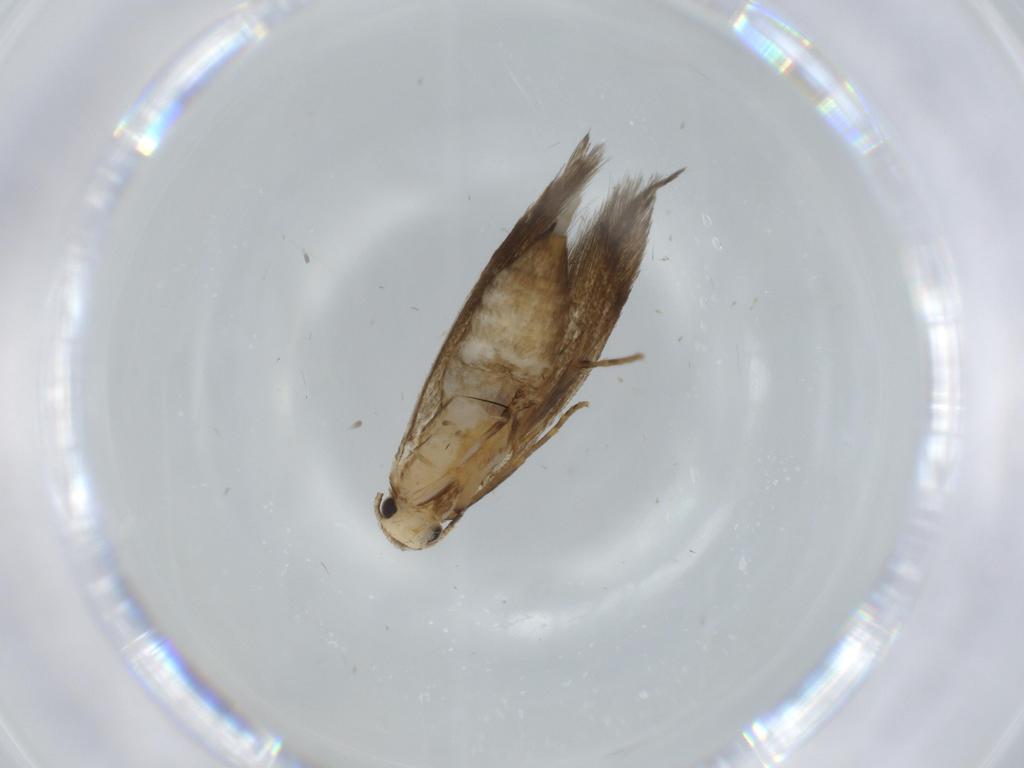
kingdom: Animalia
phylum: Arthropoda
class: Insecta
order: Lepidoptera
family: Tineidae
